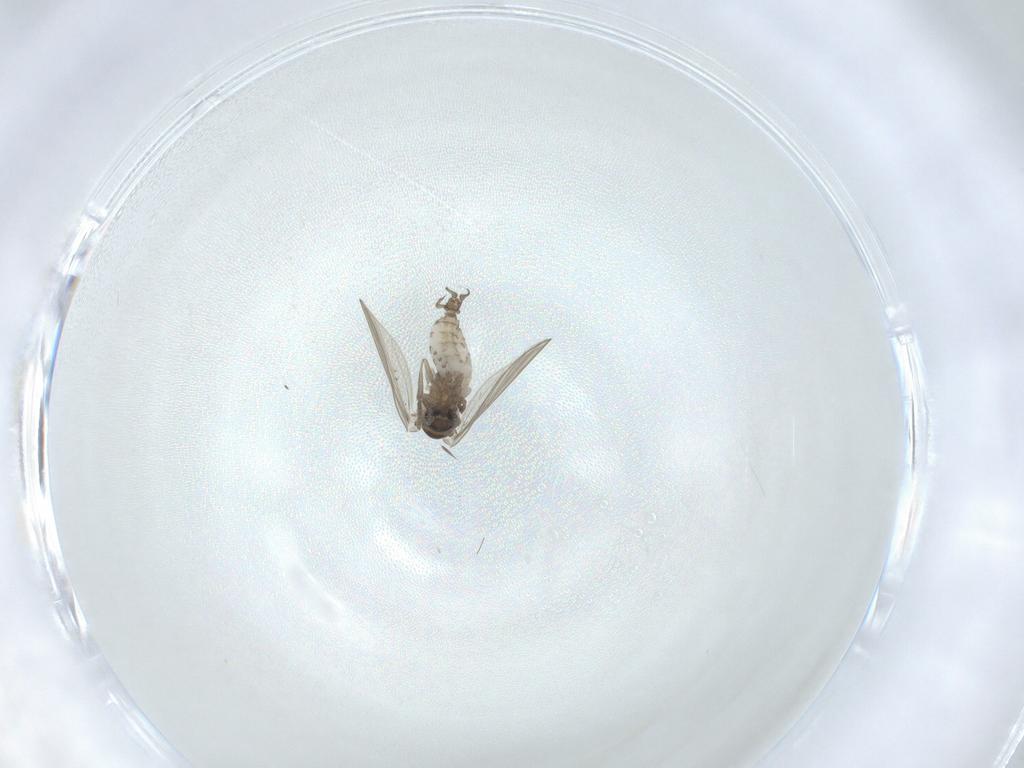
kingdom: Animalia
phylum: Arthropoda
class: Insecta
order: Diptera
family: Psychodidae
